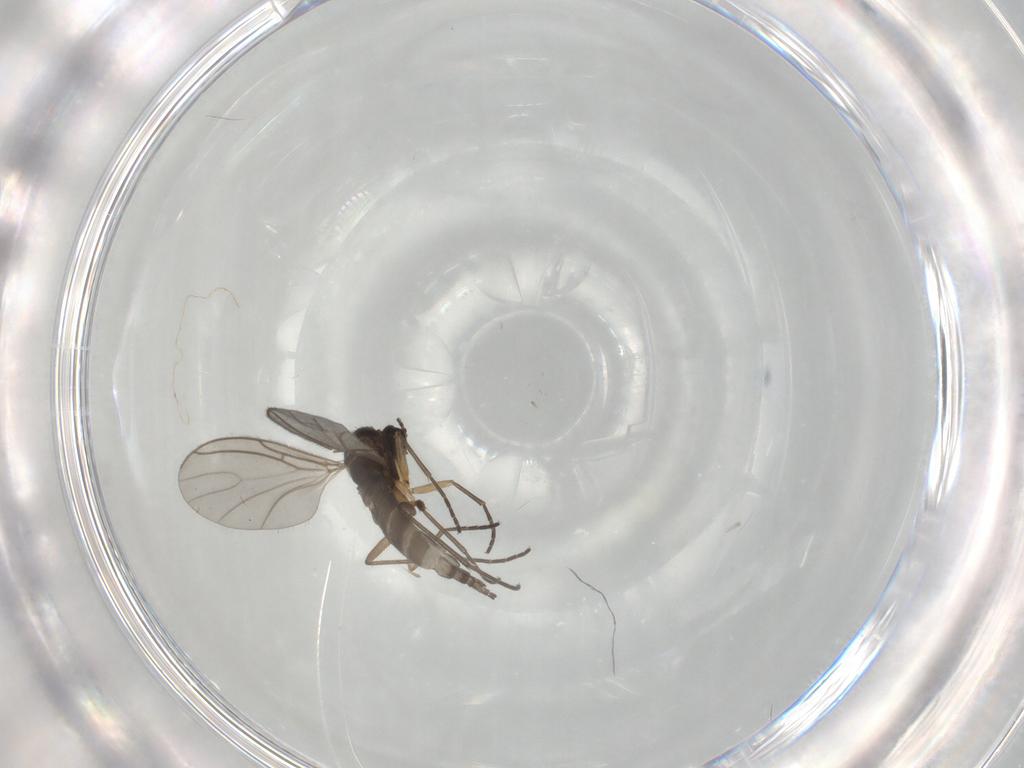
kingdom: Animalia
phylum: Arthropoda
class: Insecta
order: Diptera
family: Sciaridae
